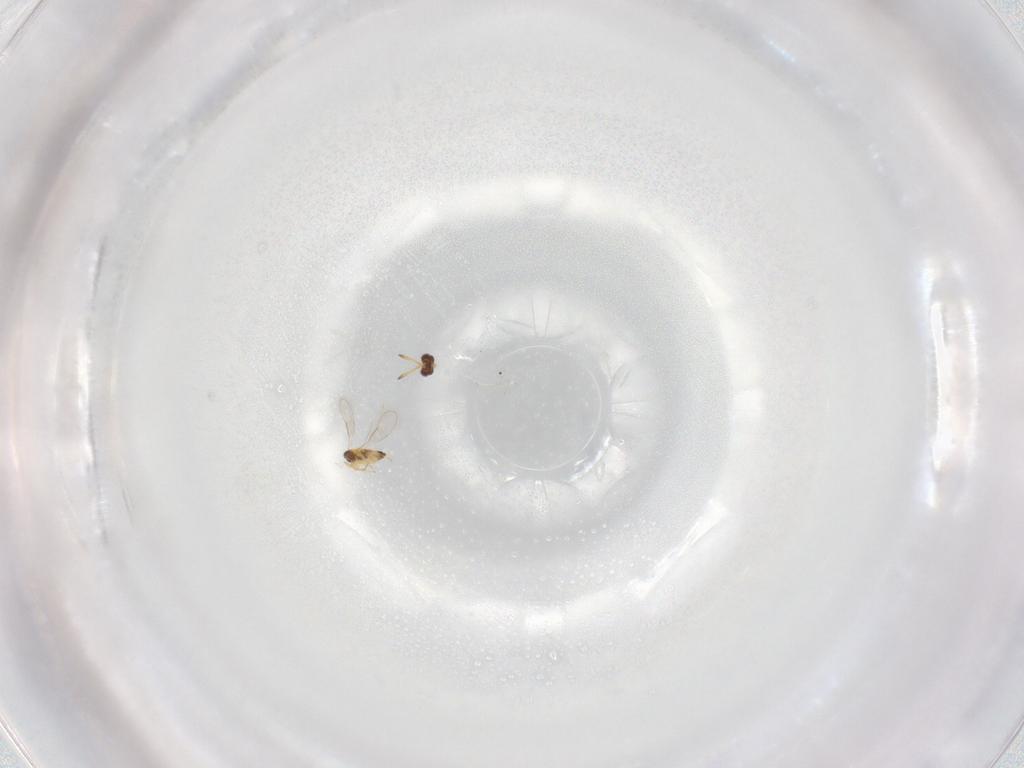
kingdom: Animalia
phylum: Arthropoda
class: Insecta
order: Hymenoptera
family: Aphelinidae
